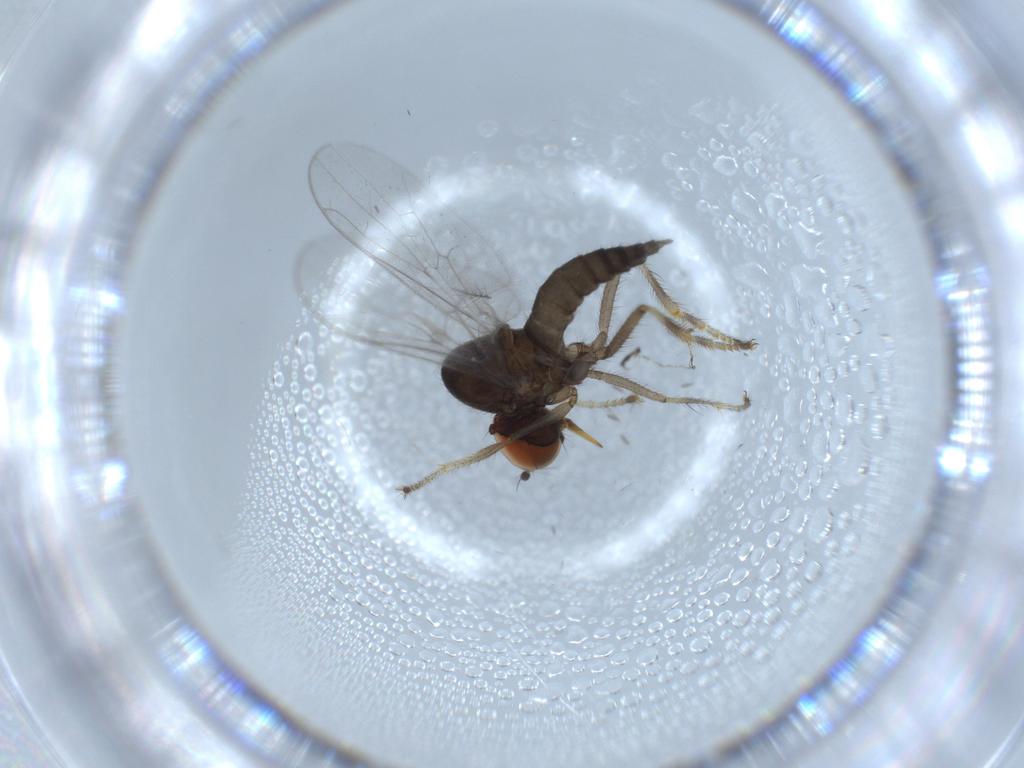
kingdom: Animalia
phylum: Arthropoda
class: Insecta
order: Diptera
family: Hybotidae
